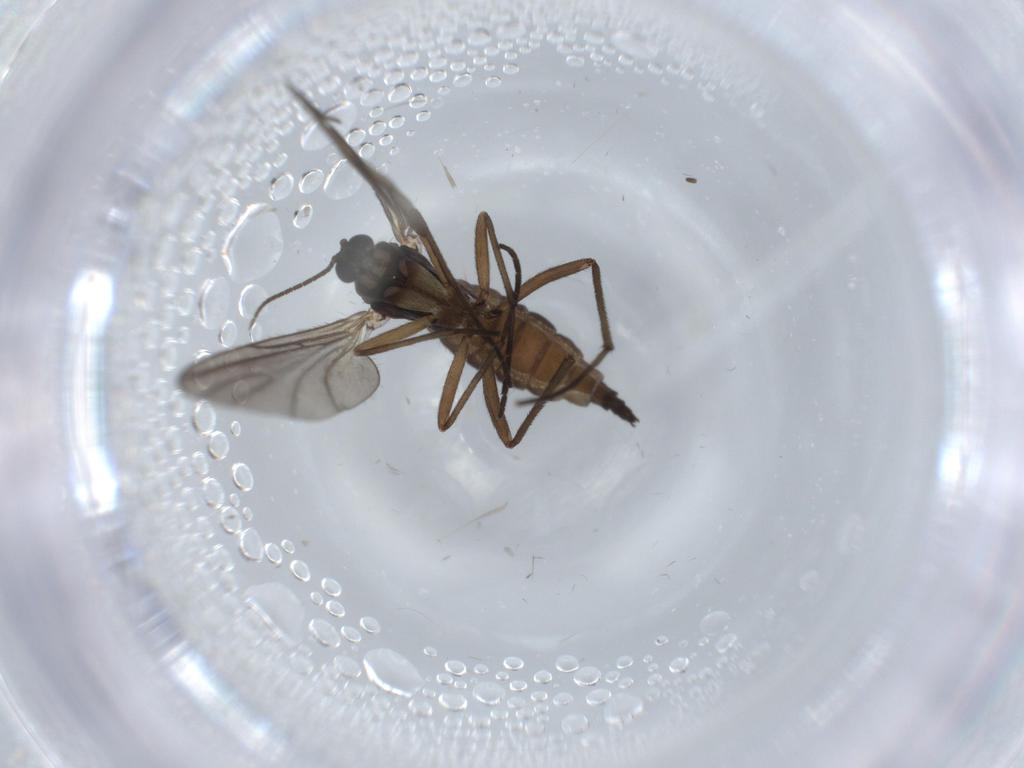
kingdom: Animalia
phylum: Arthropoda
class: Insecta
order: Diptera
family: Sciaridae
